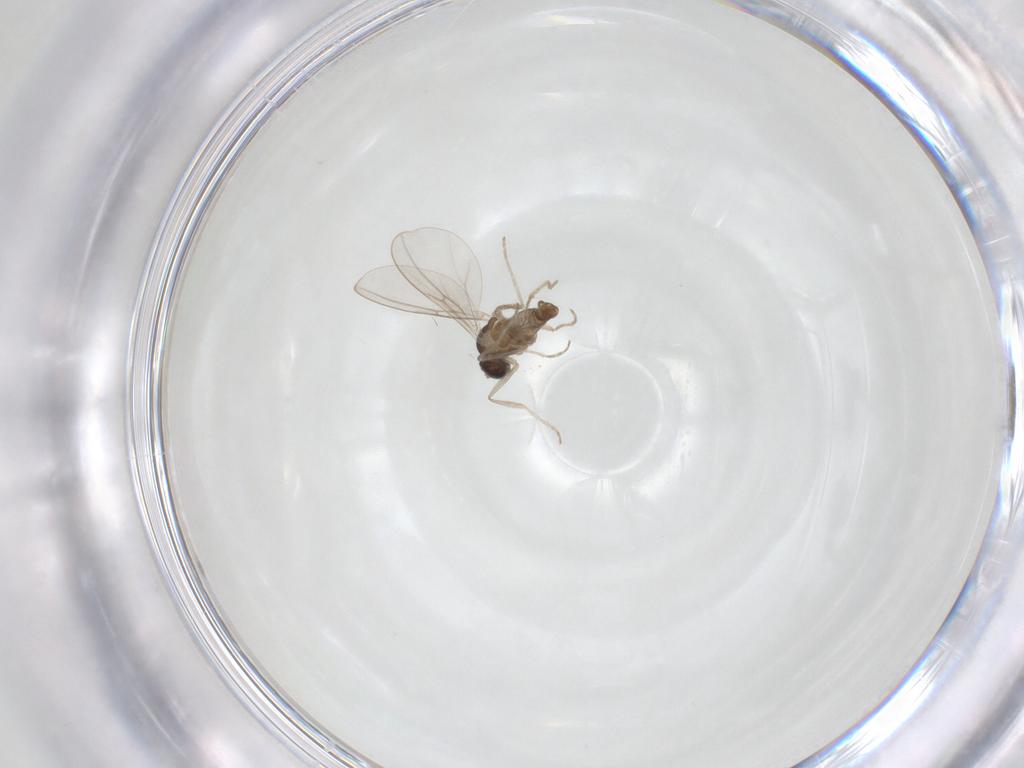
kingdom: Animalia
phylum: Arthropoda
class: Insecta
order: Diptera
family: Cecidomyiidae
